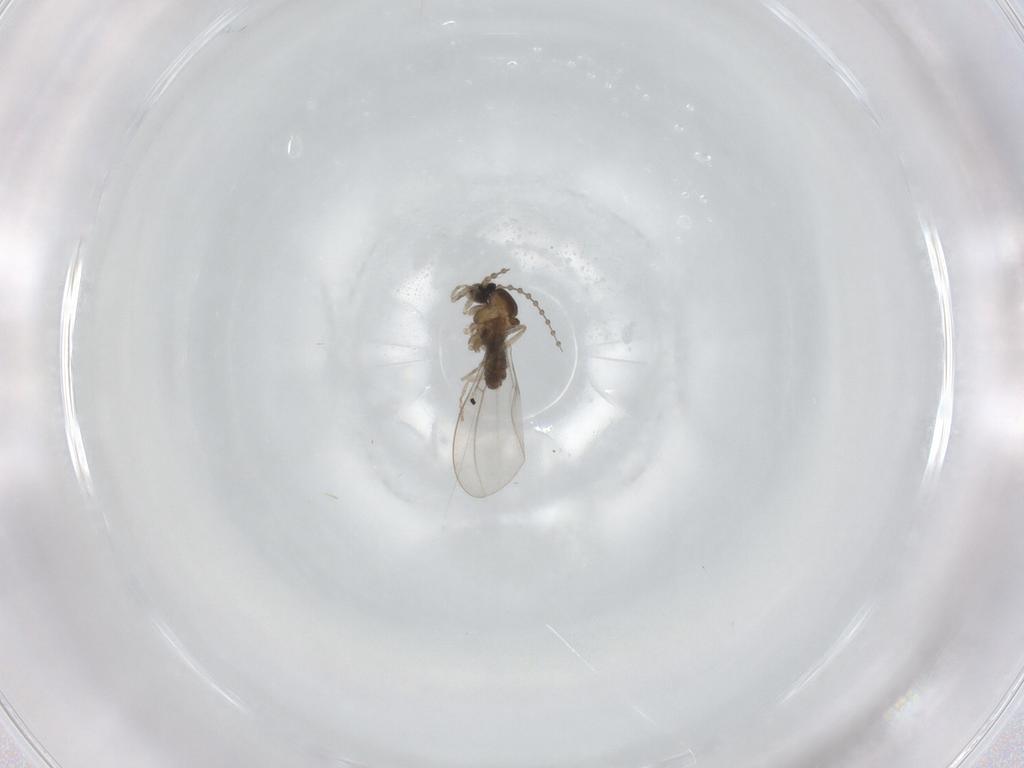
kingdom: Animalia
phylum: Arthropoda
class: Insecta
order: Diptera
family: Cecidomyiidae
